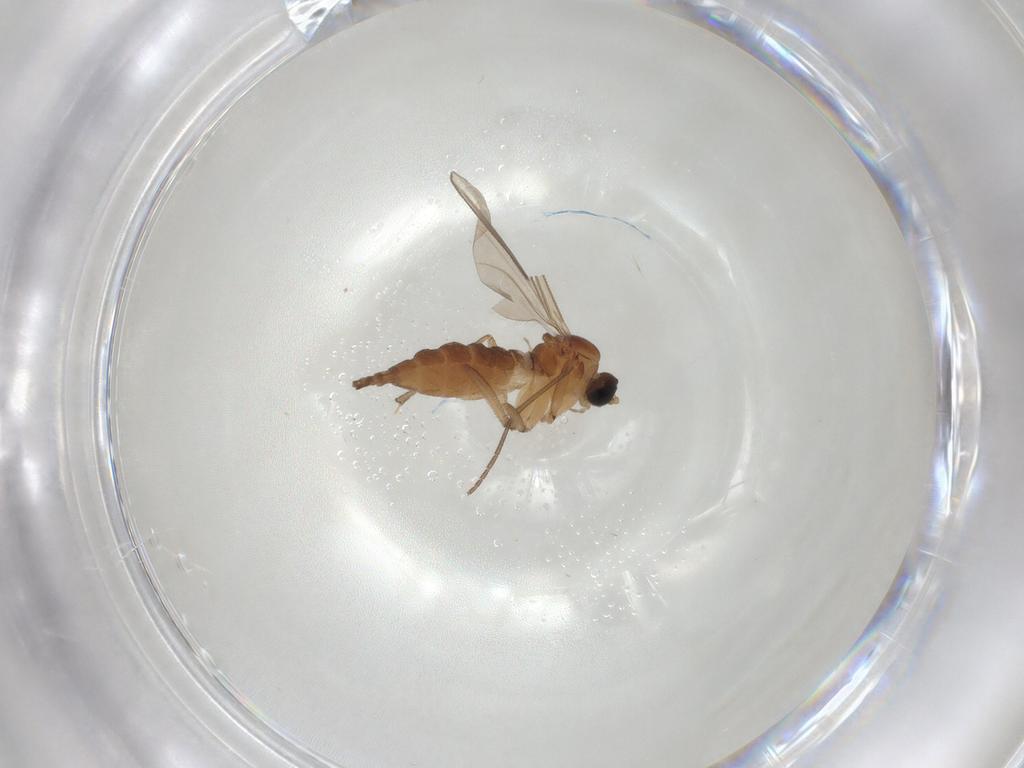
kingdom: Animalia
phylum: Arthropoda
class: Insecta
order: Diptera
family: Sciaridae
